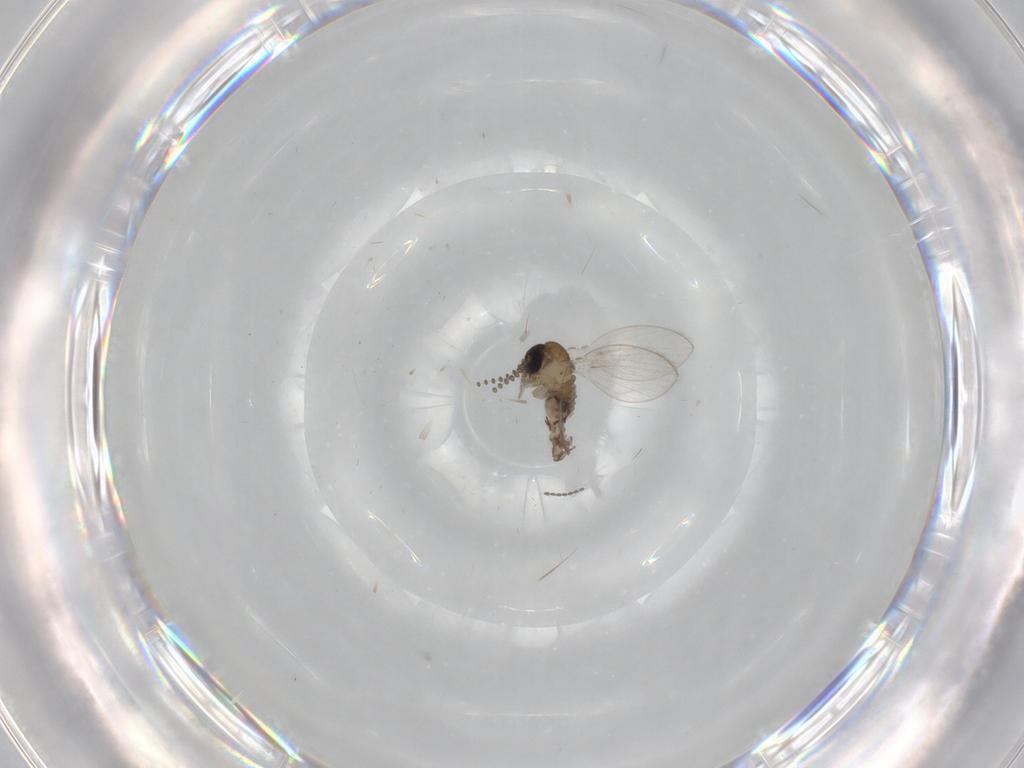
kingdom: Animalia
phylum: Arthropoda
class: Insecta
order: Diptera
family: Psychodidae
